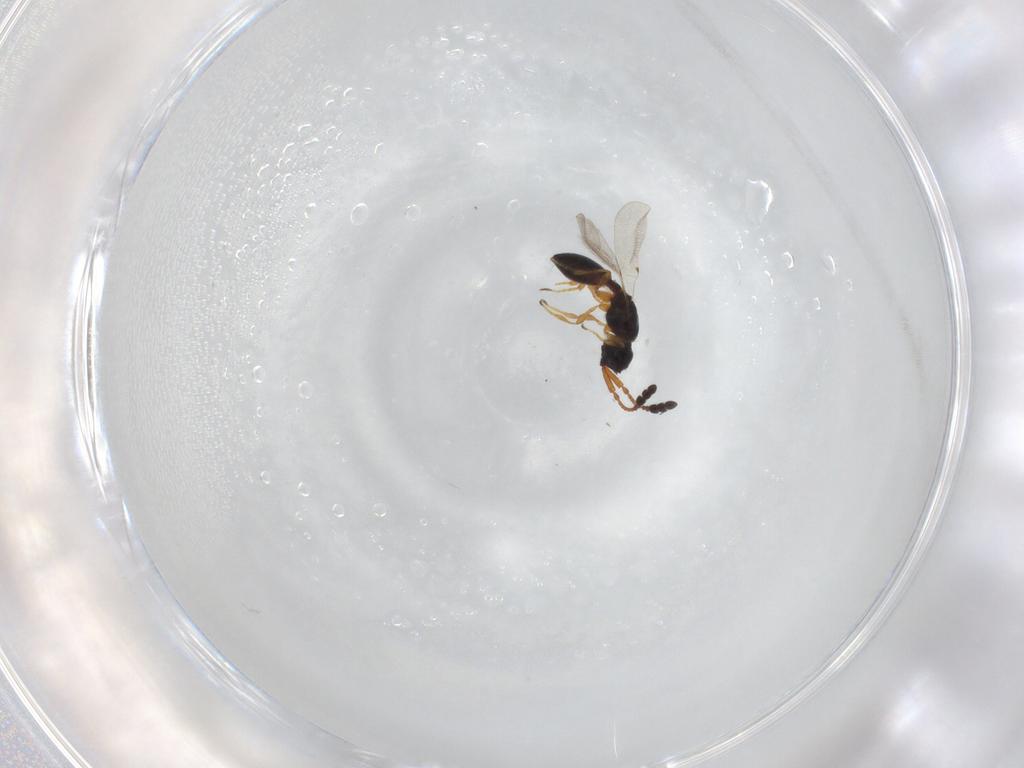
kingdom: Animalia
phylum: Arthropoda
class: Insecta
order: Hymenoptera
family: Diapriidae
